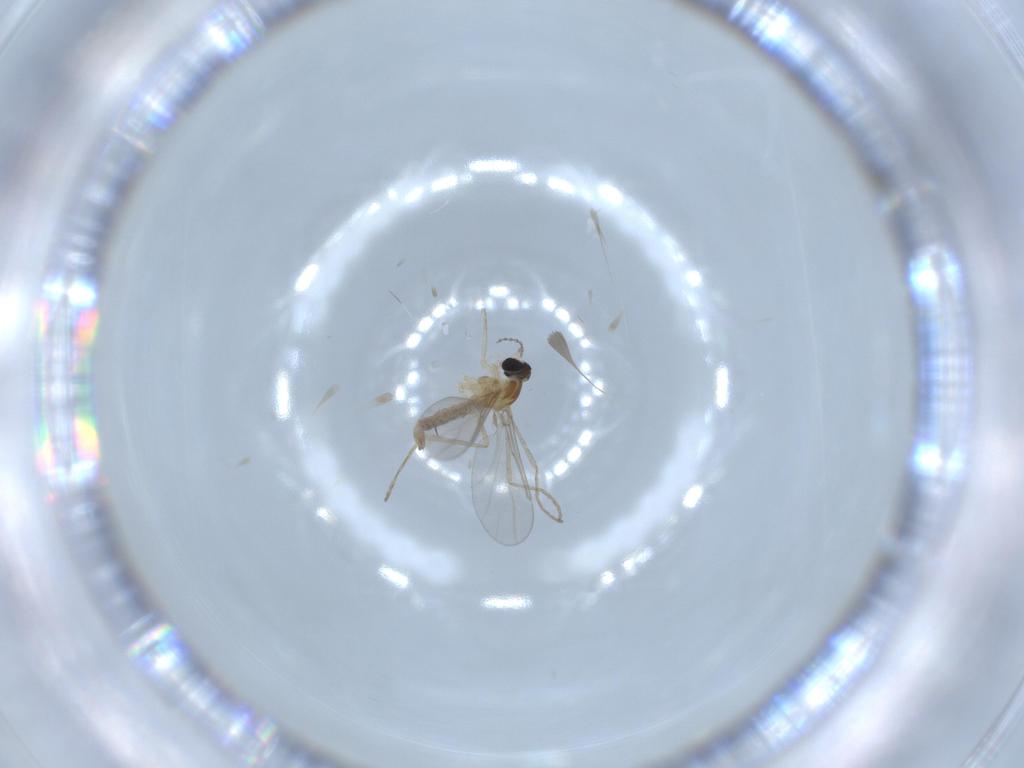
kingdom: Animalia
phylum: Arthropoda
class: Insecta
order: Diptera
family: Cecidomyiidae
